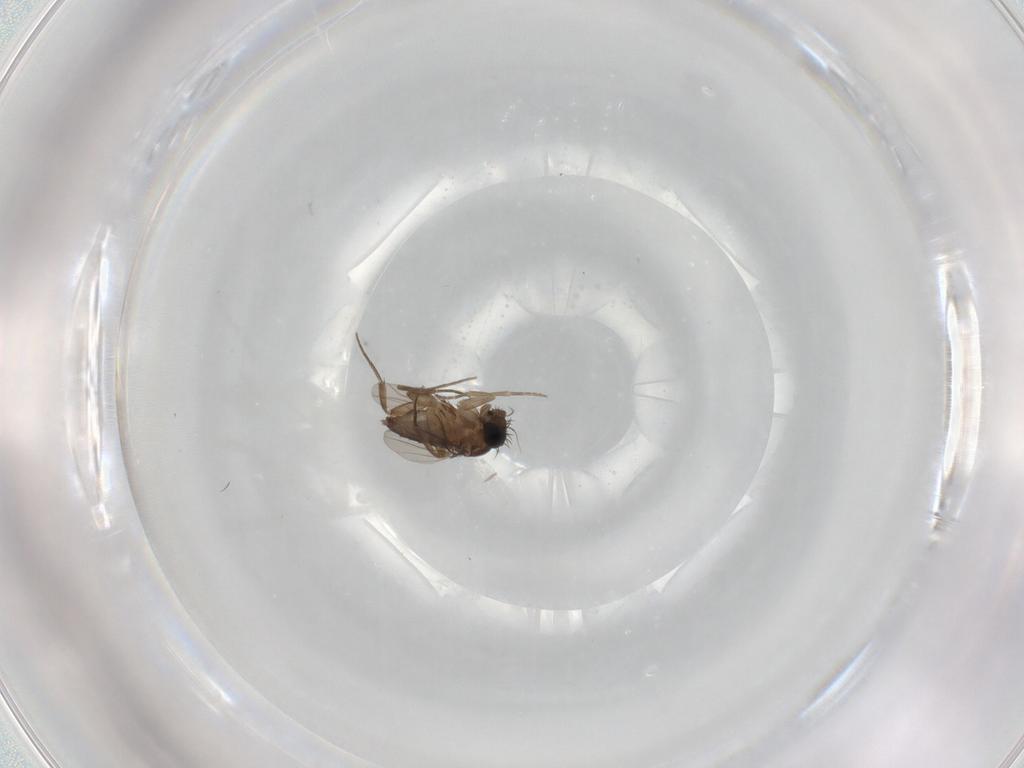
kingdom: Animalia
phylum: Arthropoda
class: Insecta
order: Diptera
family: Phoridae
